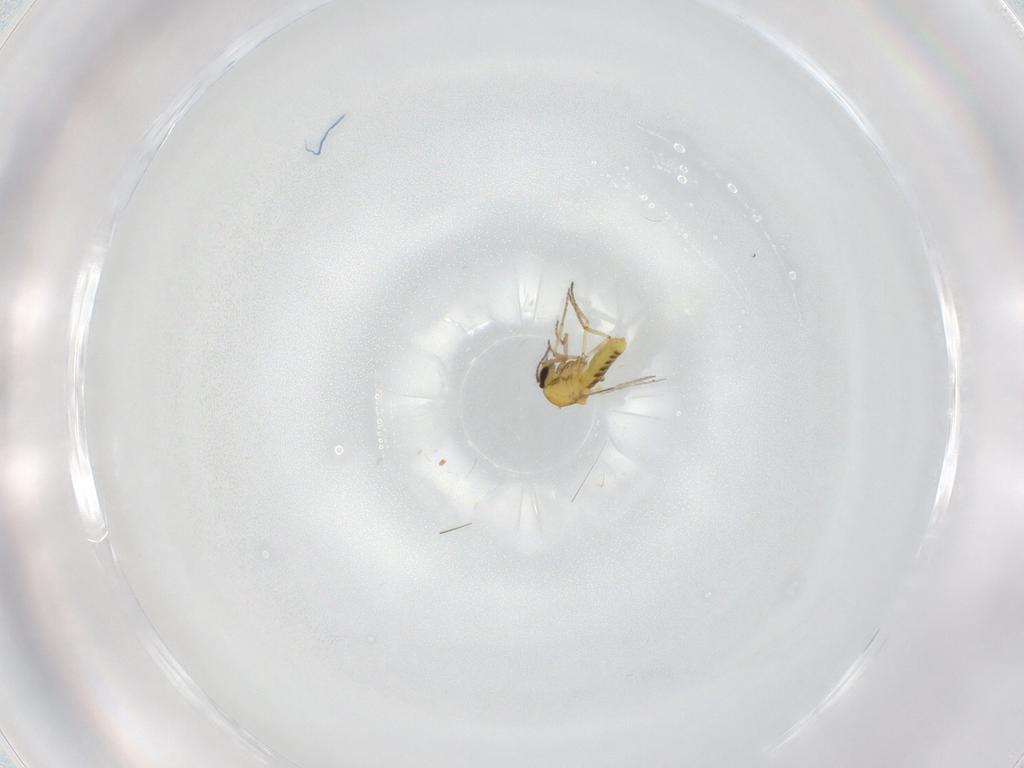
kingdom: Animalia
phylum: Arthropoda
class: Insecta
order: Diptera
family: Ceratopogonidae
